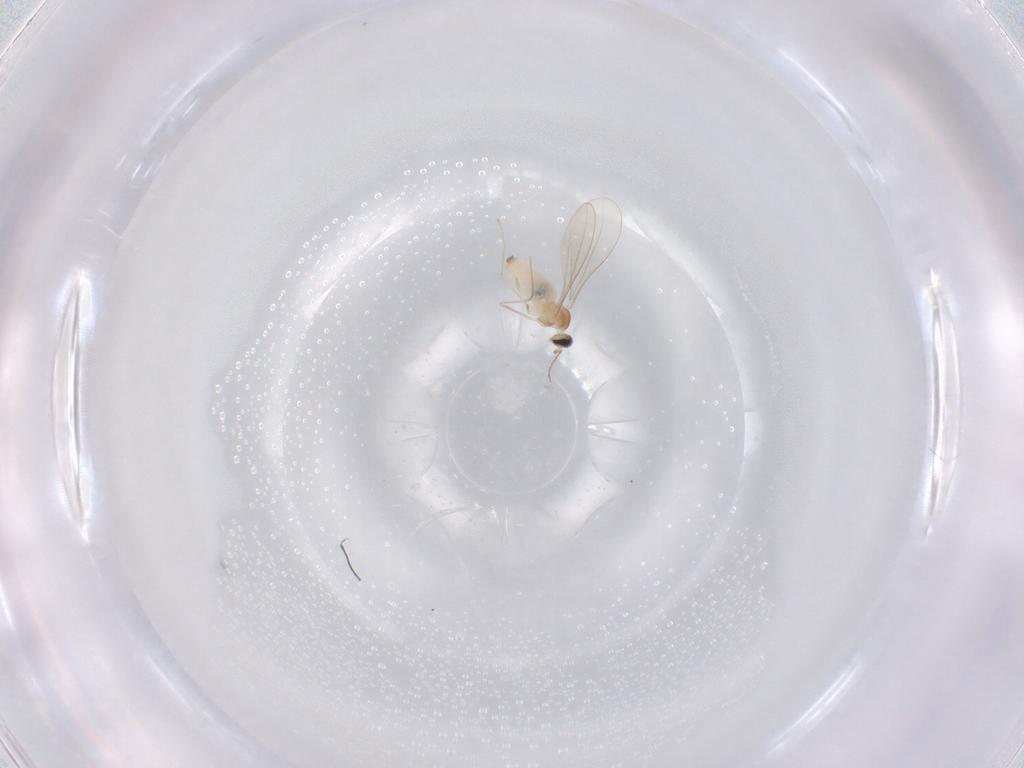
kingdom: Animalia
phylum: Arthropoda
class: Insecta
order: Diptera
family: Cecidomyiidae
